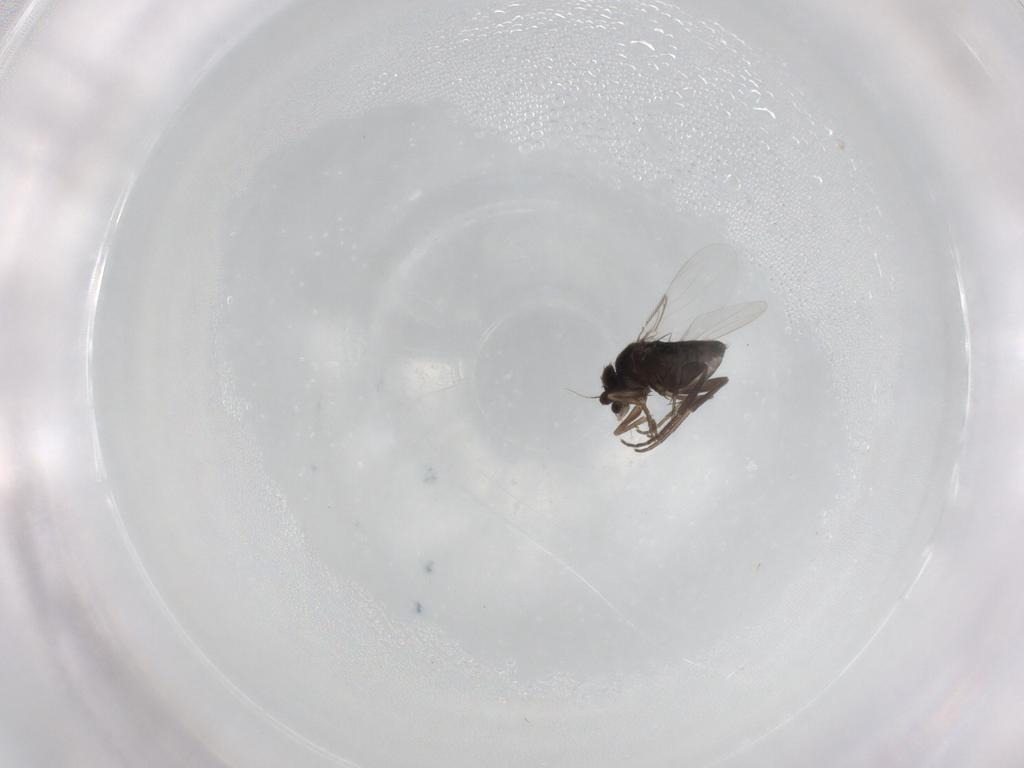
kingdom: Animalia
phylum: Arthropoda
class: Insecta
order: Diptera
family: Phoridae
